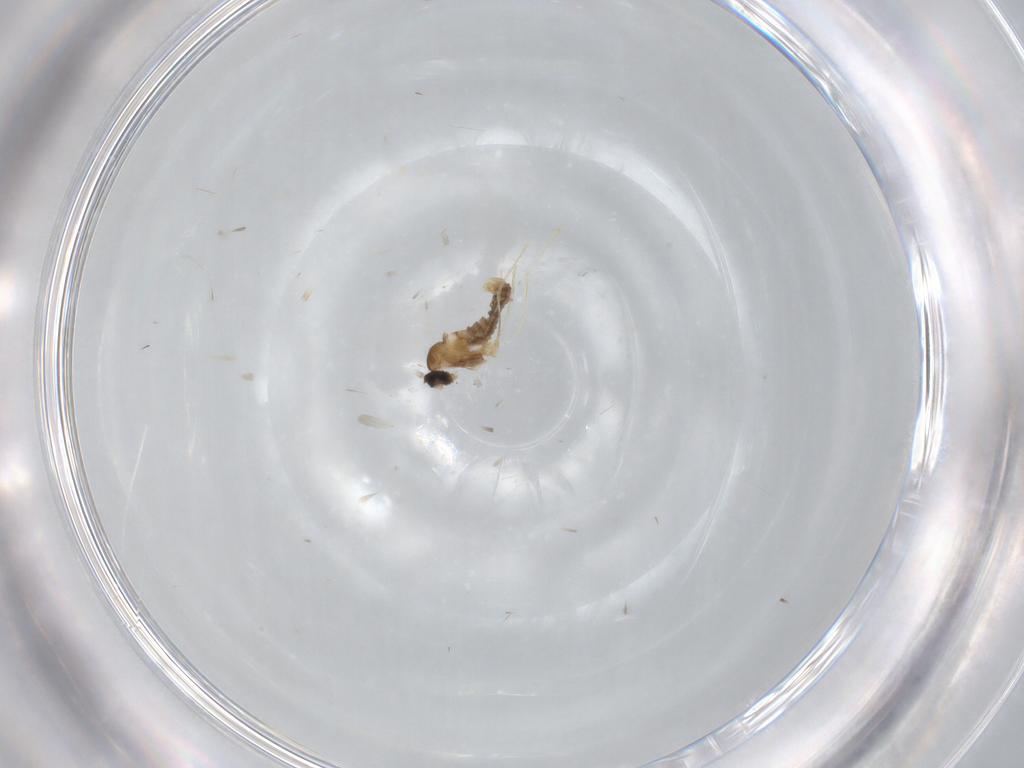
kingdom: Animalia
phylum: Arthropoda
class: Insecta
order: Diptera
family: Cecidomyiidae
